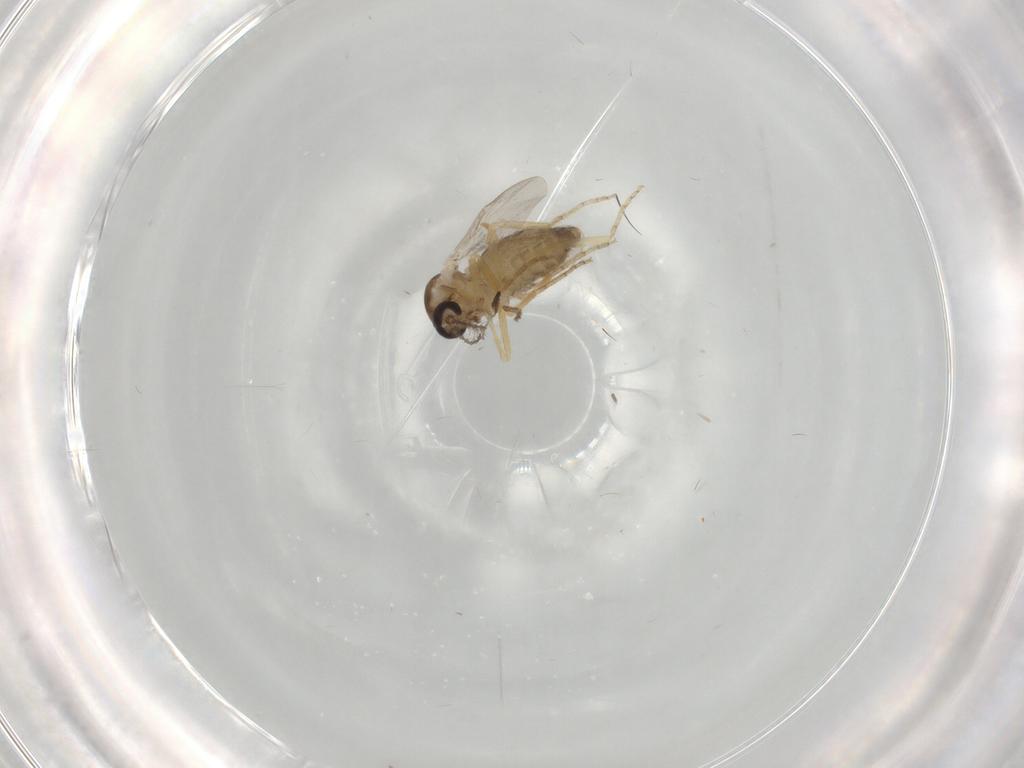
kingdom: Animalia
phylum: Arthropoda
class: Insecta
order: Diptera
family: Ceratopogonidae
